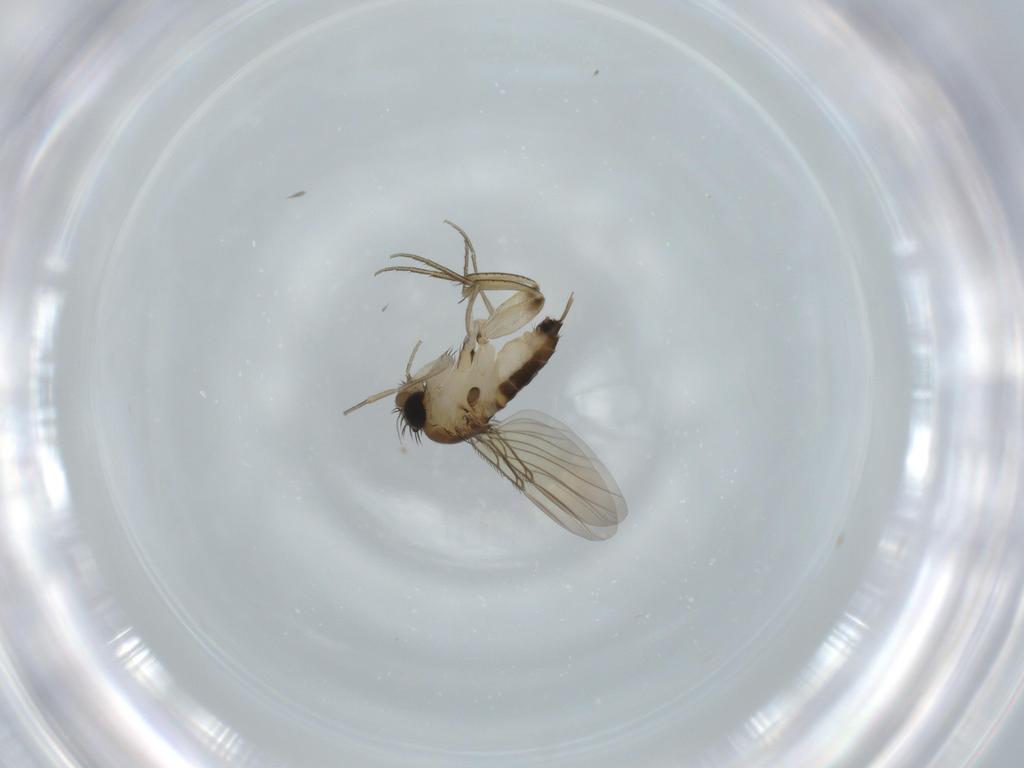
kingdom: Animalia
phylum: Arthropoda
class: Insecta
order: Diptera
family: Phoridae
